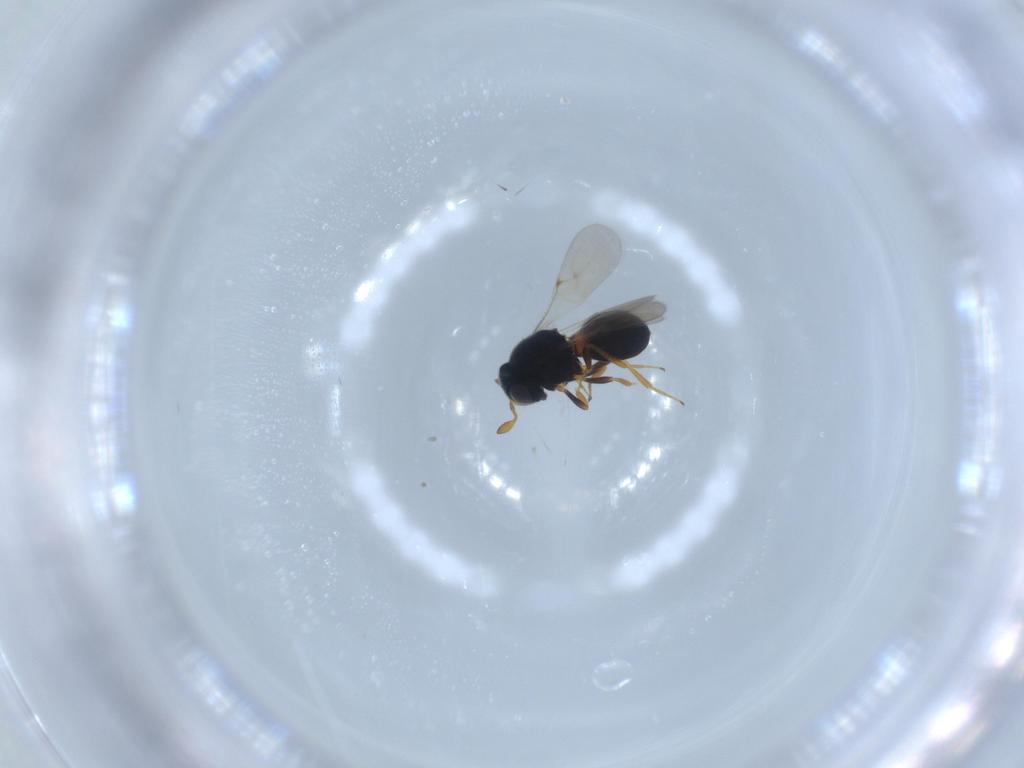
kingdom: Animalia
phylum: Arthropoda
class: Insecta
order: Hymenoptera
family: Scelionidae
